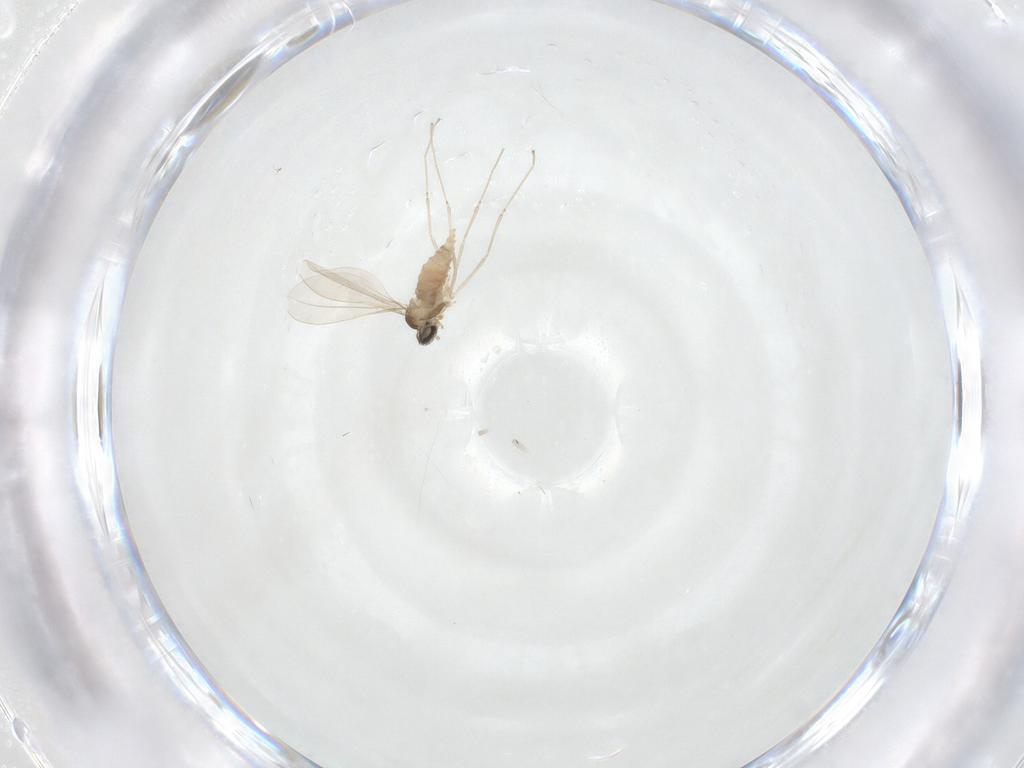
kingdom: Animalia
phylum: Arthropoda
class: Insecta
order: Diptera
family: Cecidomyiidae
